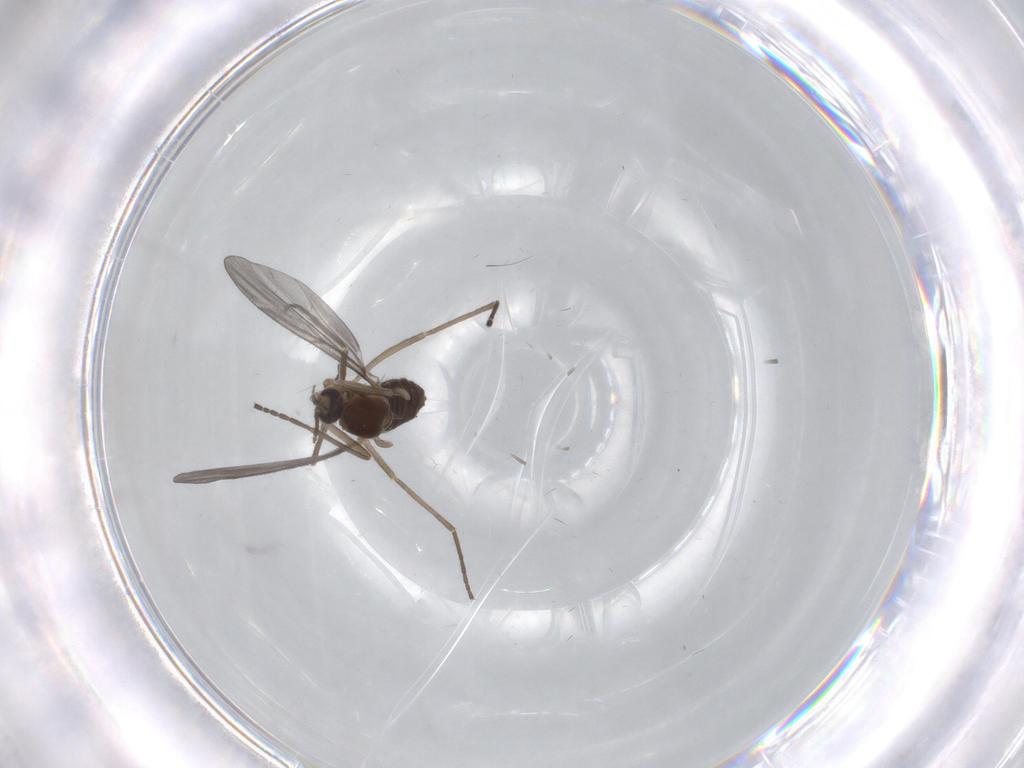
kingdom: Animalia
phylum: Arthropoda
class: Insecta
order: Diptera
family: Cecidomyiidae
